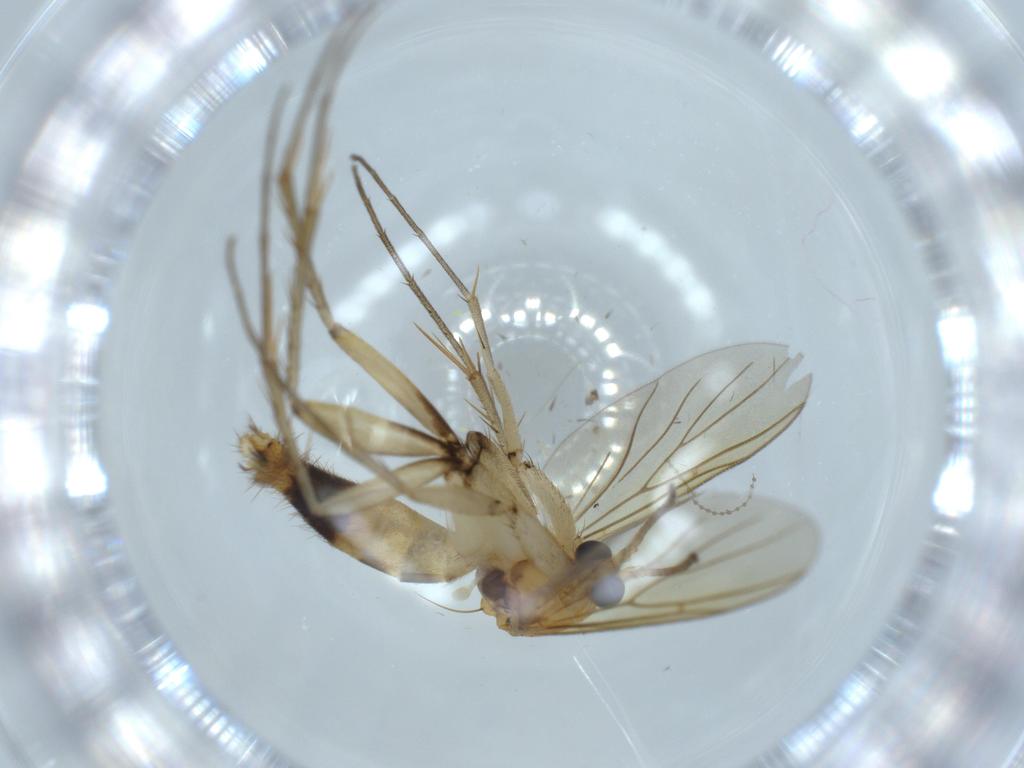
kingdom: Animalia
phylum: Arthropoda
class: Insecta
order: Diptera
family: Mycetophilidae
